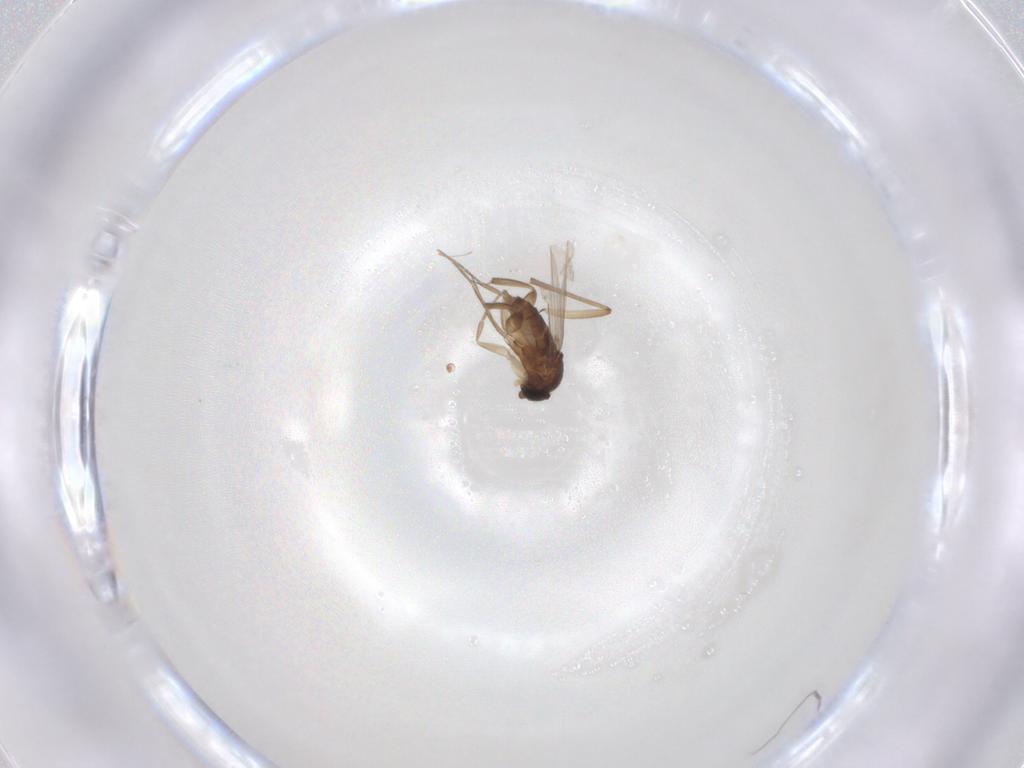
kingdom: Animalia
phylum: Arthropoda
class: Insecta
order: Diptera
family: Phoridae
